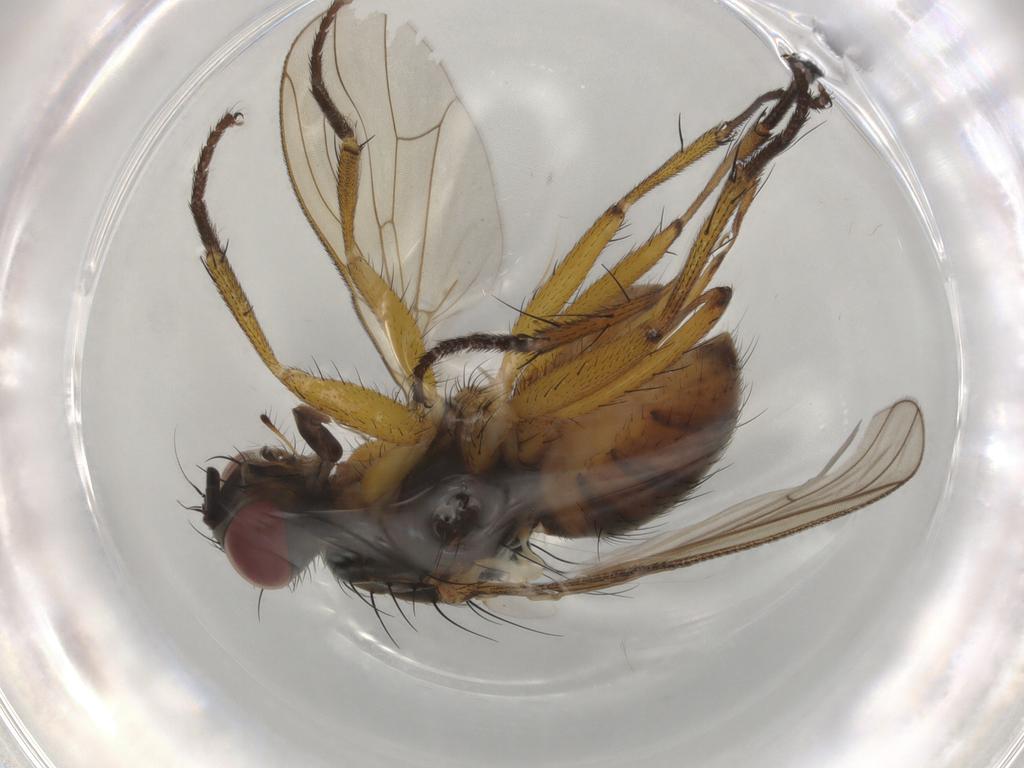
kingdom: Animalia
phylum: Arthropoda
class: Insecta
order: Diptera
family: Muscidae
